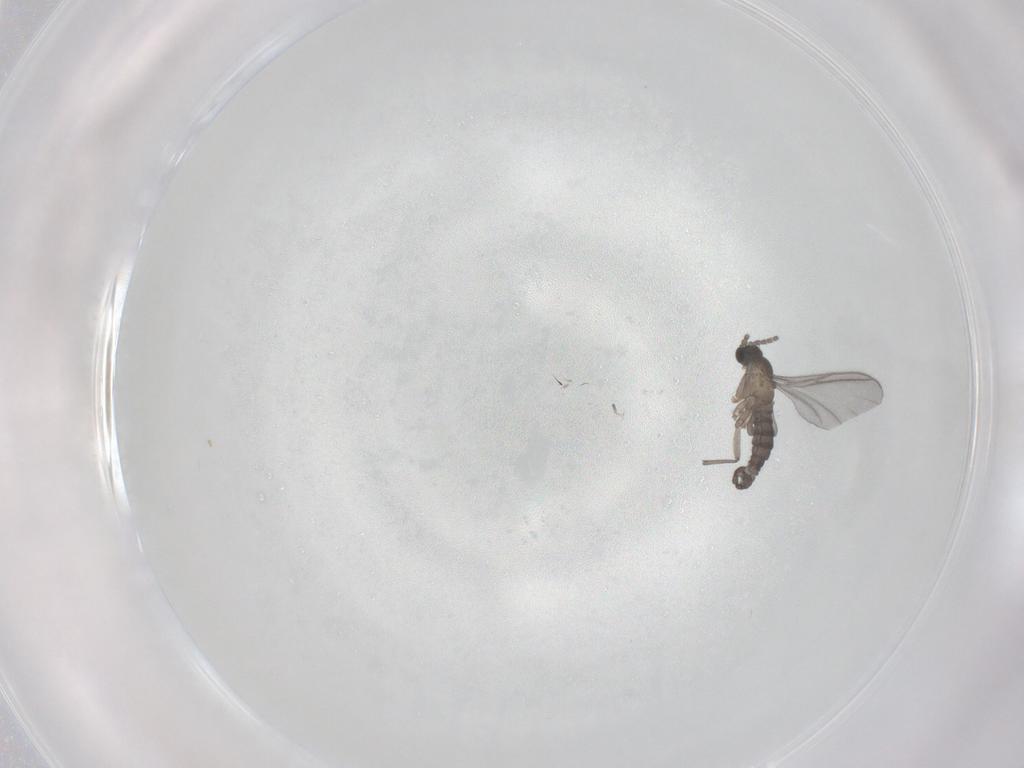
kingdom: Animalia
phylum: Arthropoda
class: Insecta
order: Diptera
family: Sciaridae
